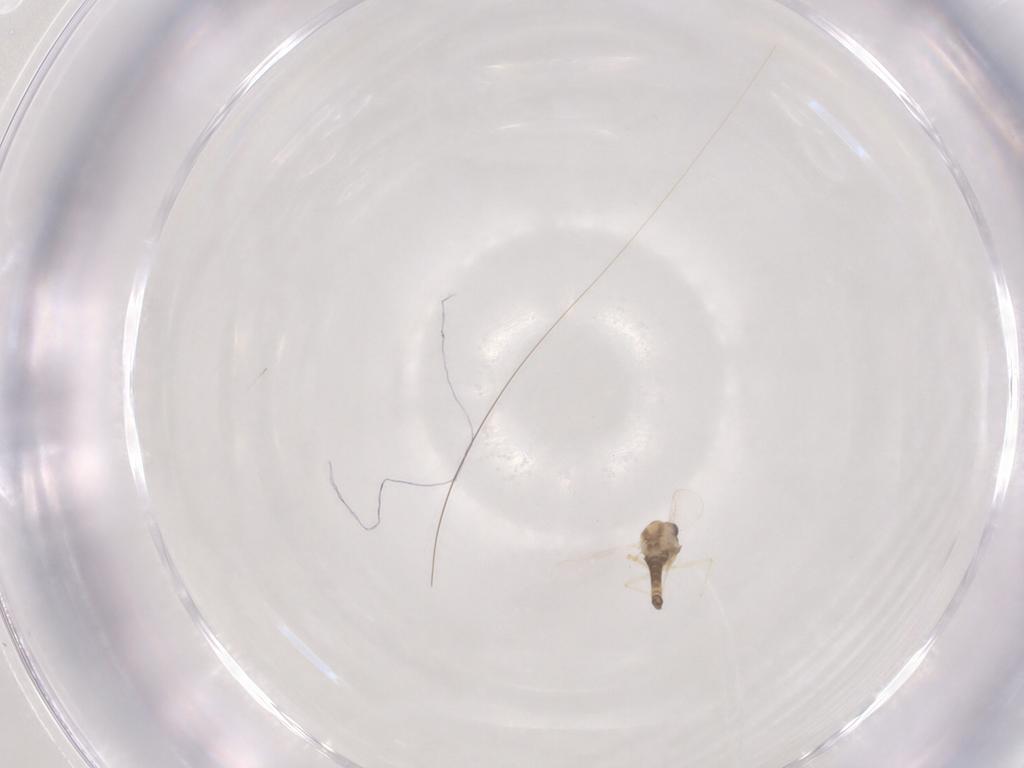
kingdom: Animalia
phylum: Arthropoda
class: Insecta
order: Diptera
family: Chironomidae
